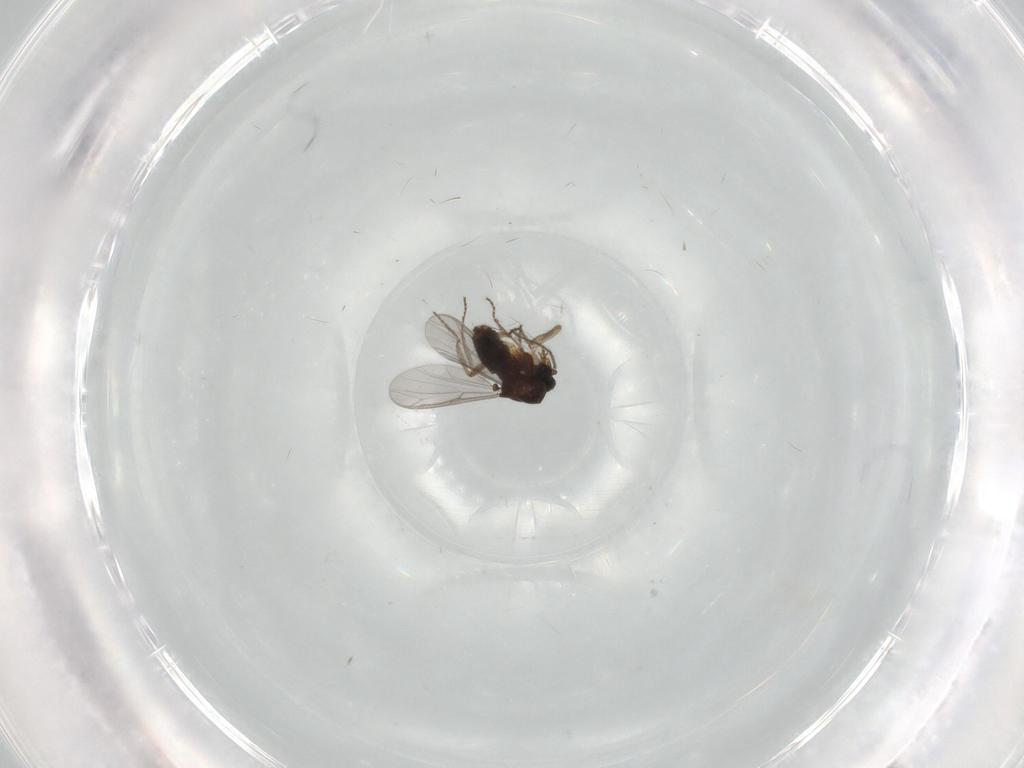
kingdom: Animalia
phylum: Arthropoda
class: Insecta
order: Diptera
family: Ceratopogonidae
